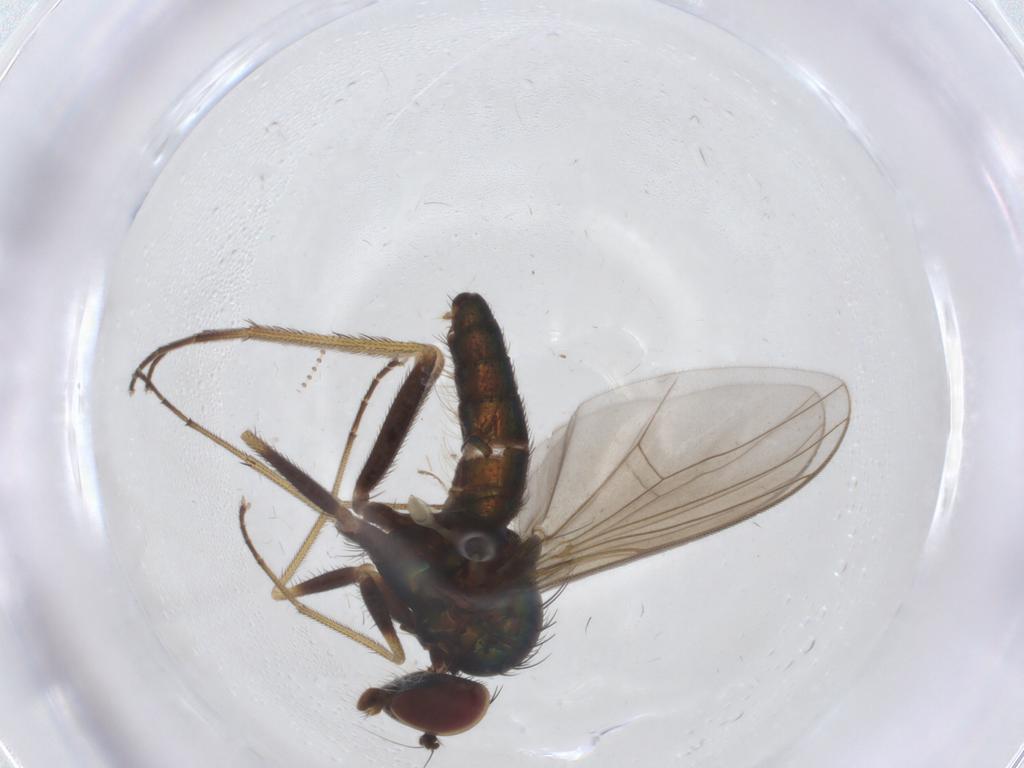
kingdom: Animalia
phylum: Arthropoda
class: Insecta
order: Diptera
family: Dolichopodidae
